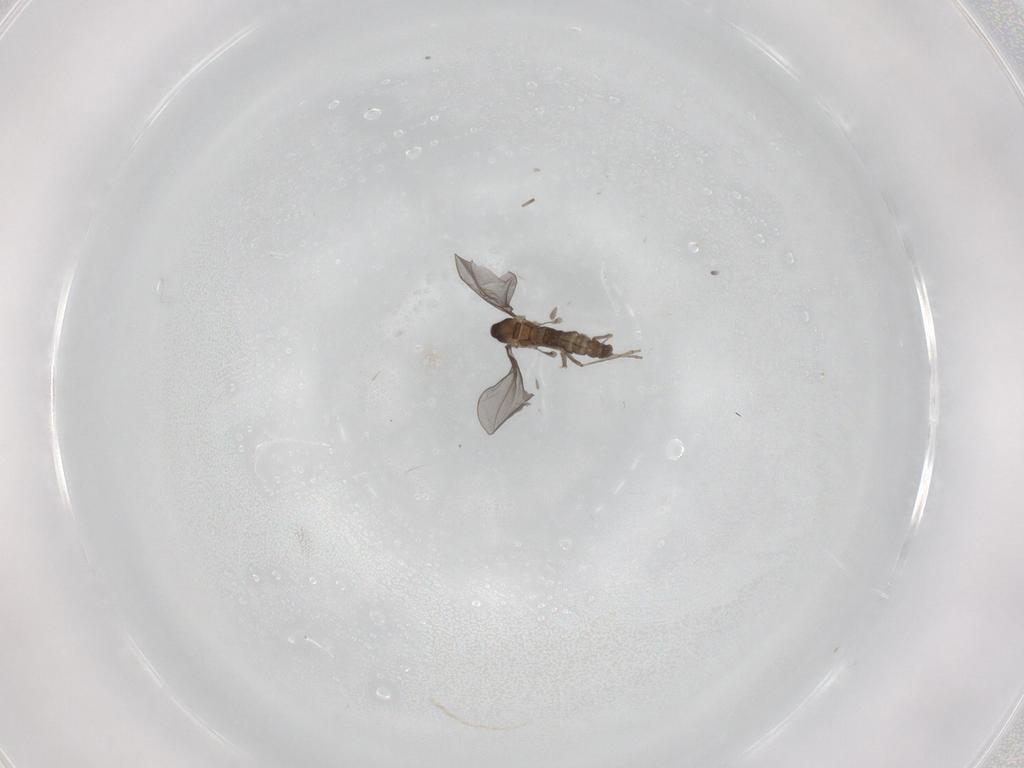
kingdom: Animalia
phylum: Arthropoda
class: Insecta
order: Diptera
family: Cecidomyiidae
